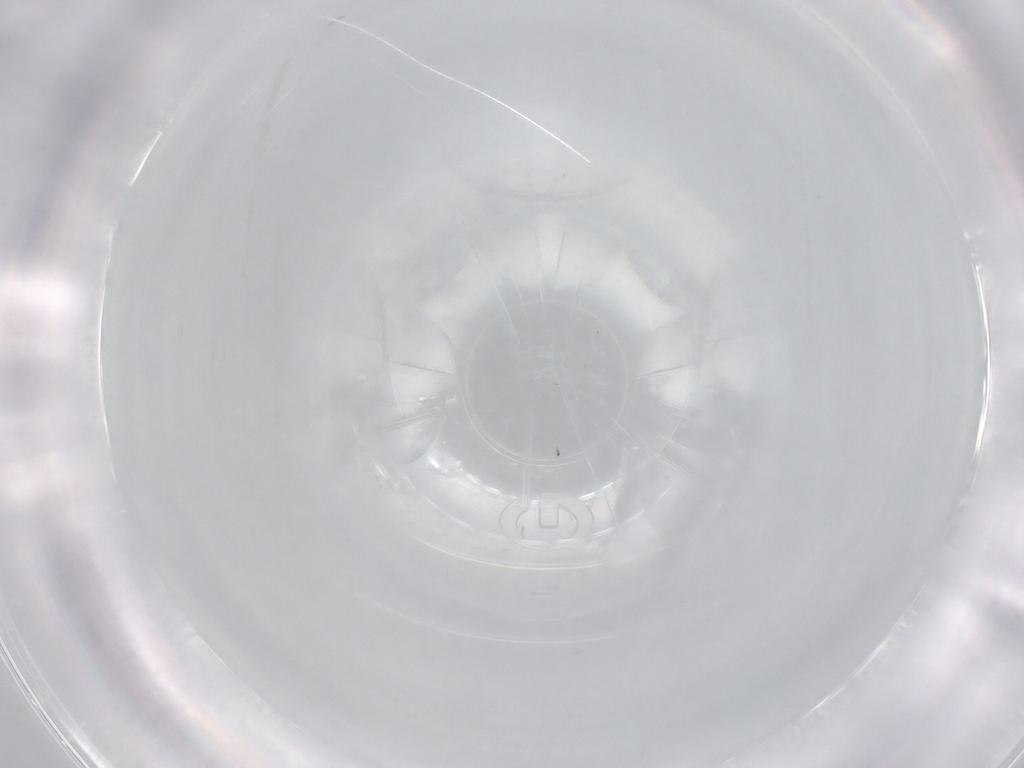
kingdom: Animalia
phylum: Arthropoda
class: Arachnida
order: Trombidiformes
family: Anystidae
